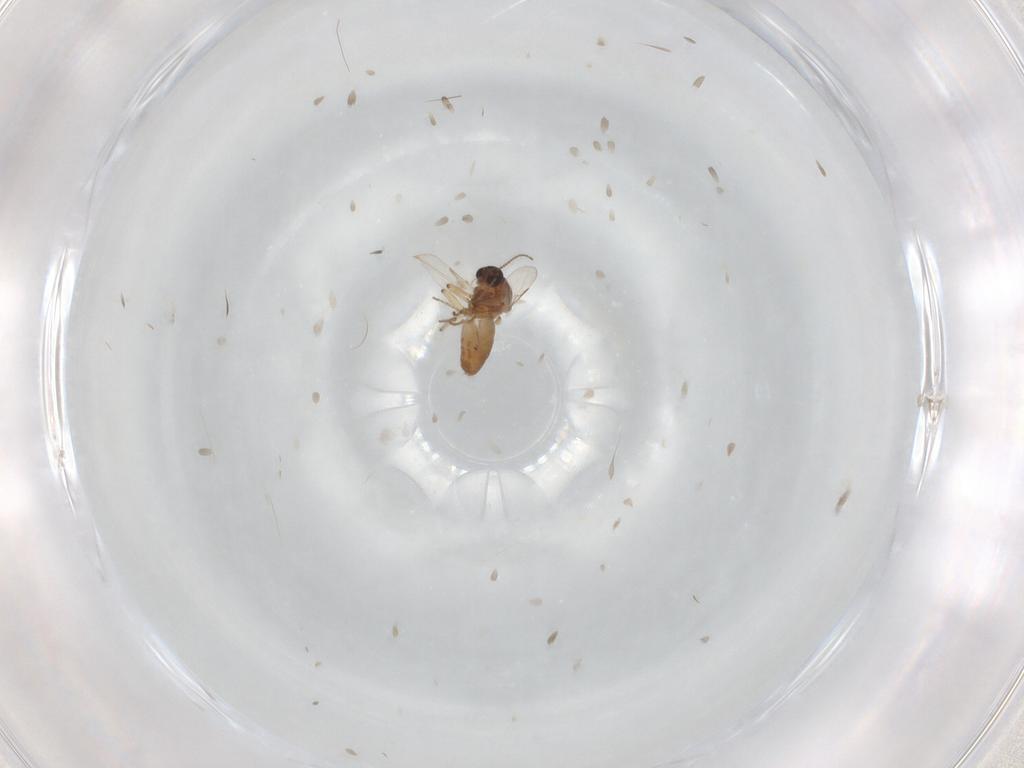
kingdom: Animalia
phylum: Arthropoda
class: Insecta
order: Diptera
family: Ceratopogonidae
